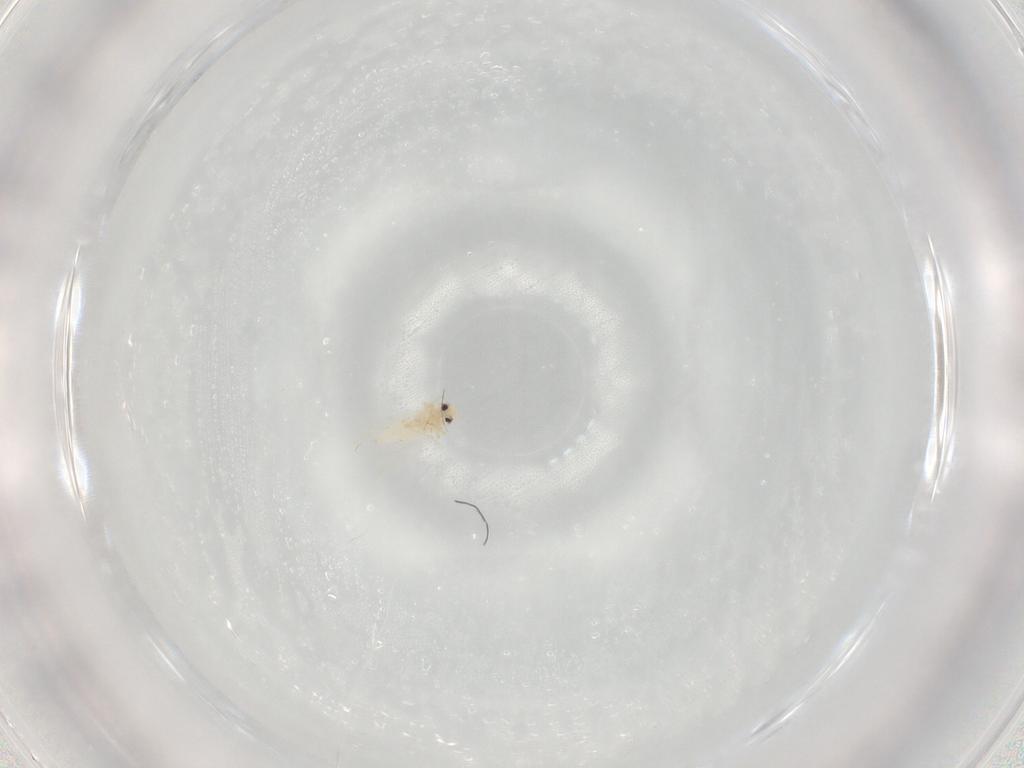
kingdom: Animalia
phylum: Arthropoda
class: Insecta
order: Hemiptera
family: Aleyrodidae
